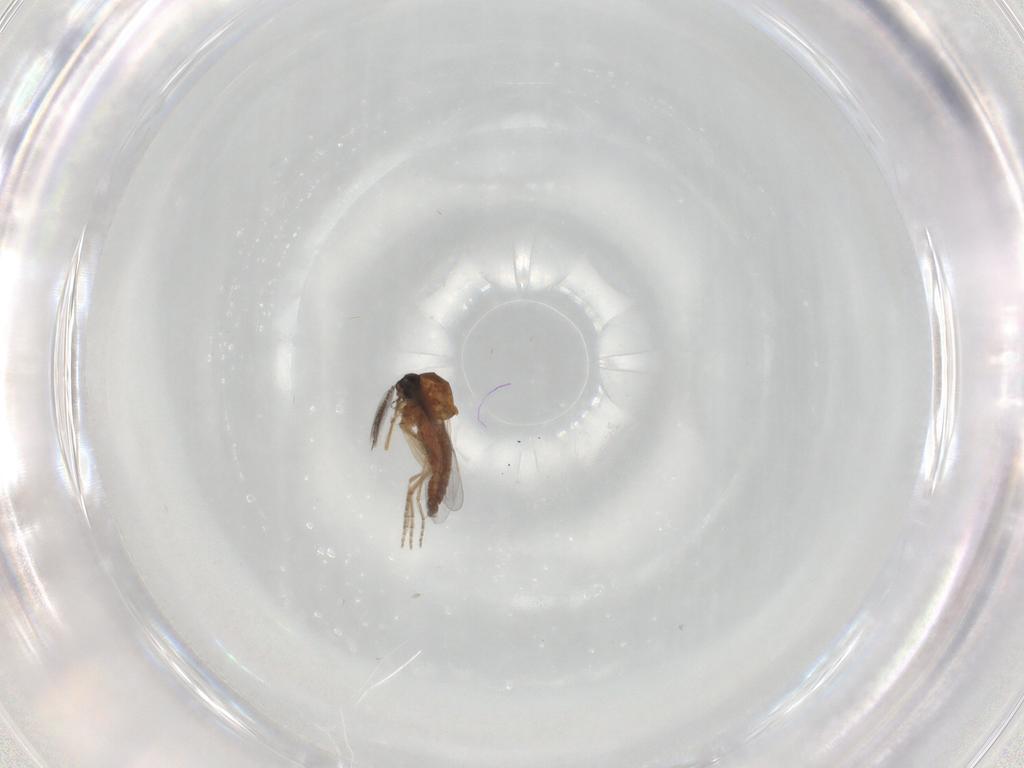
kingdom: Animalia
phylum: Arthropoda
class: Insecta
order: Diptera
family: Ceratopogonidae
